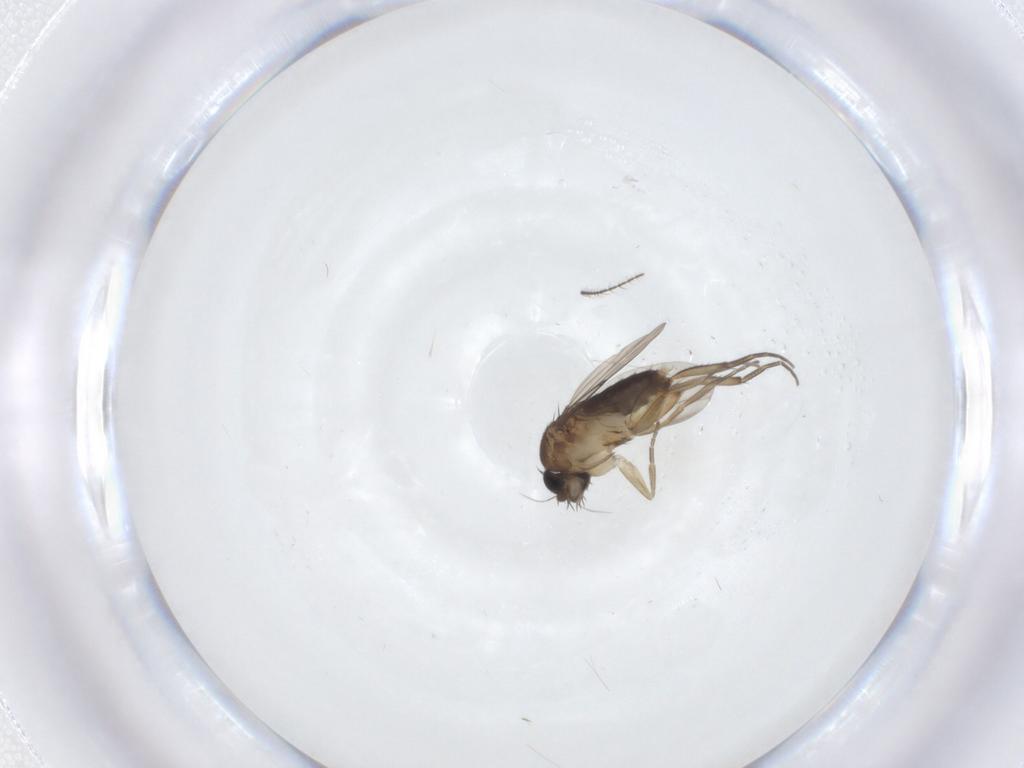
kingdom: Animalia
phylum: Arthropoda
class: Insecta
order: Diptera
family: Phoridae
